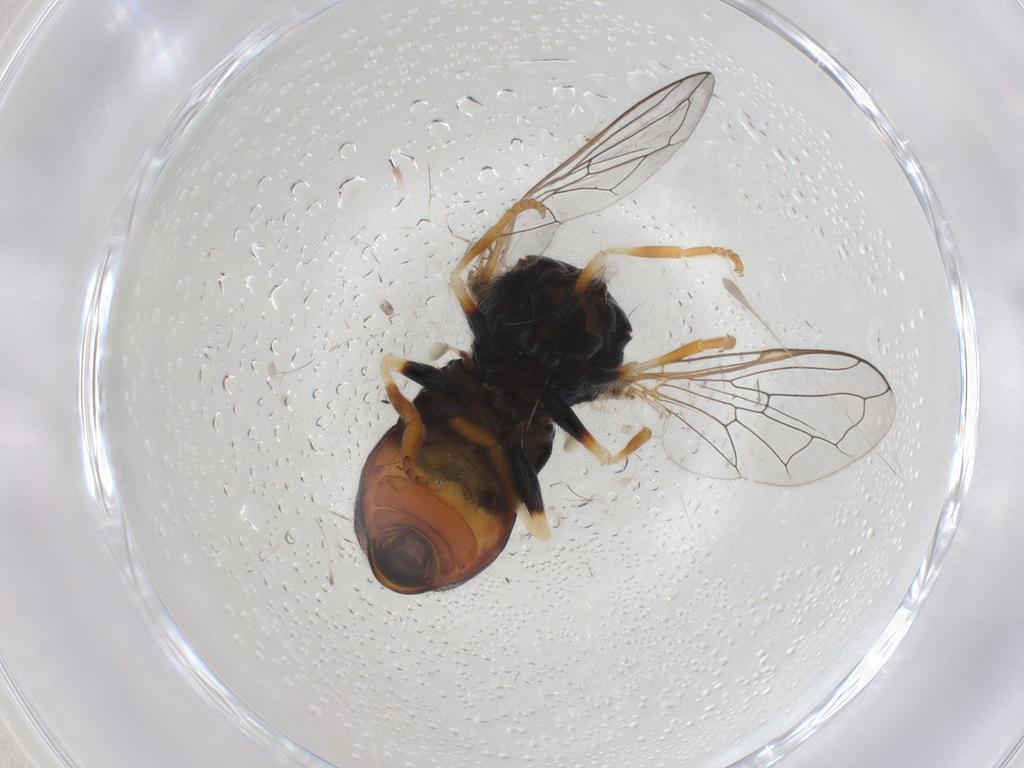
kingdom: Animalia
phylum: Arthropoda
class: Insecta
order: Diptera
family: Syrphidae
